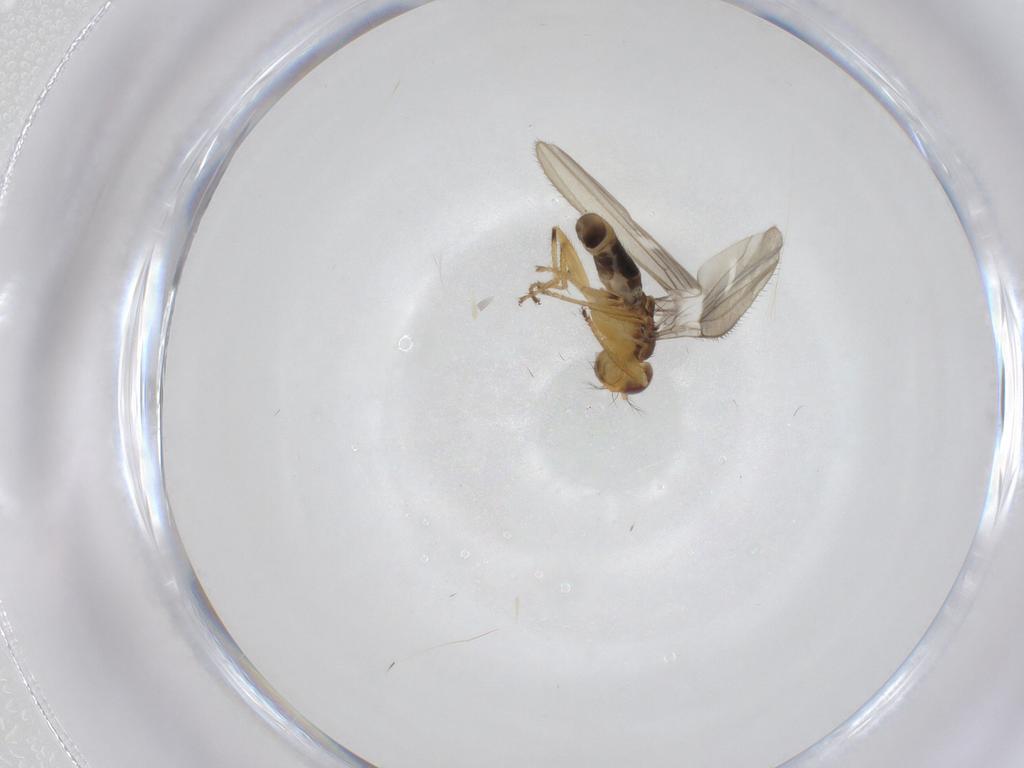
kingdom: Animalia
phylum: Arthropoda
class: Insecta
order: Diptera
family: Periscelididae
